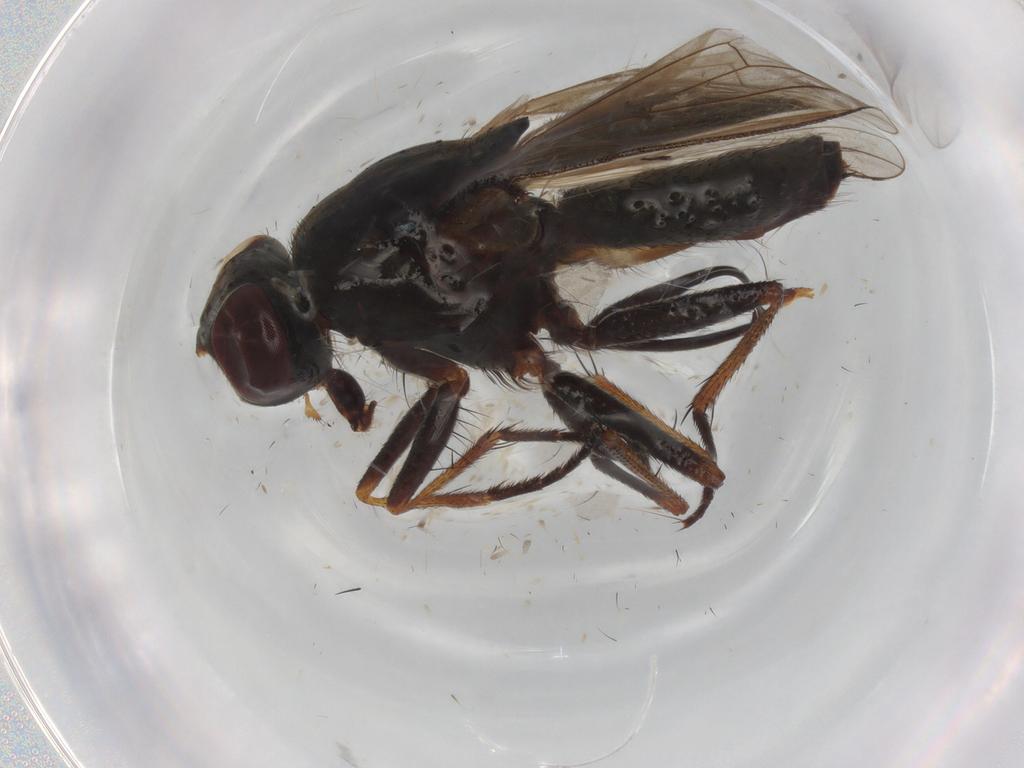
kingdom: Animalia
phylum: Arthropoda
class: Insecta
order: Diptera
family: Muscidae
